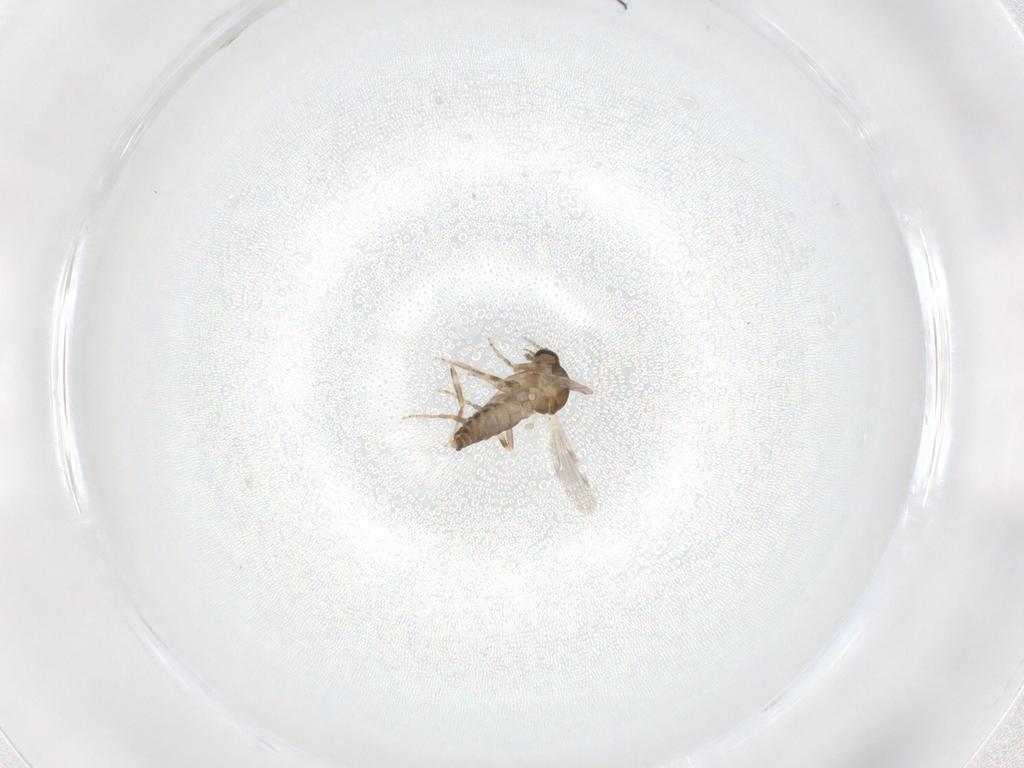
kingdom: Animalia
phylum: Arthropoda
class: Insecta
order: Diptera
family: Ceratopogonidae
